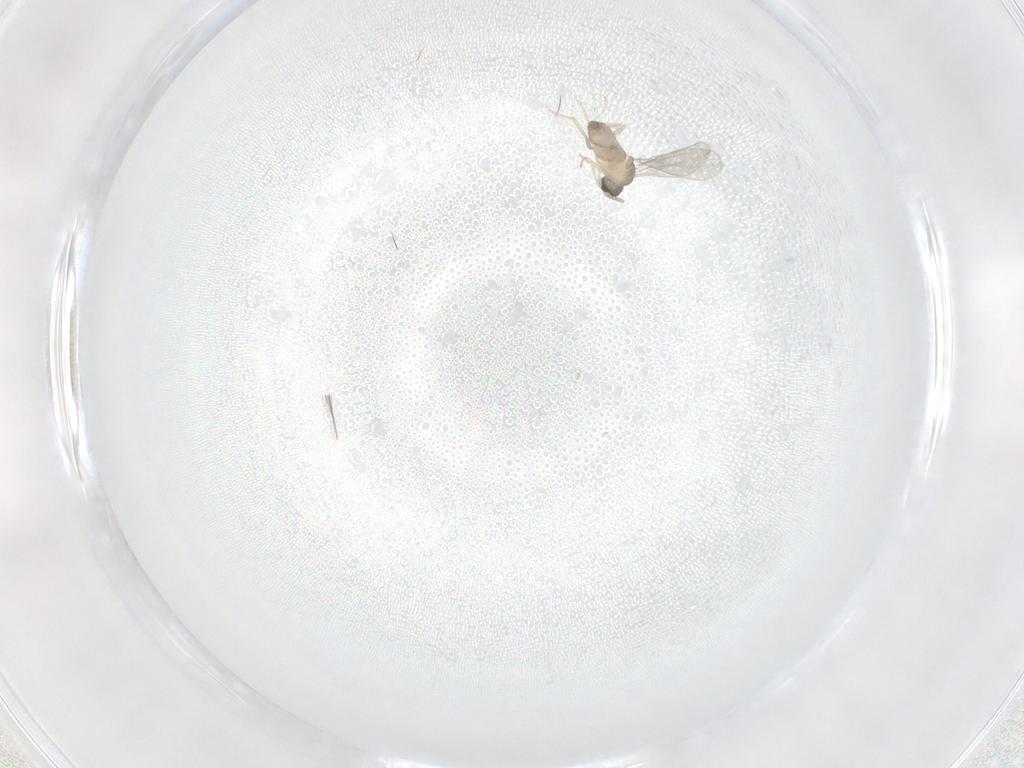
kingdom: Animalia
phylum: Arthropoda
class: Insecta
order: Diptera
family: Cecidomyiidae
